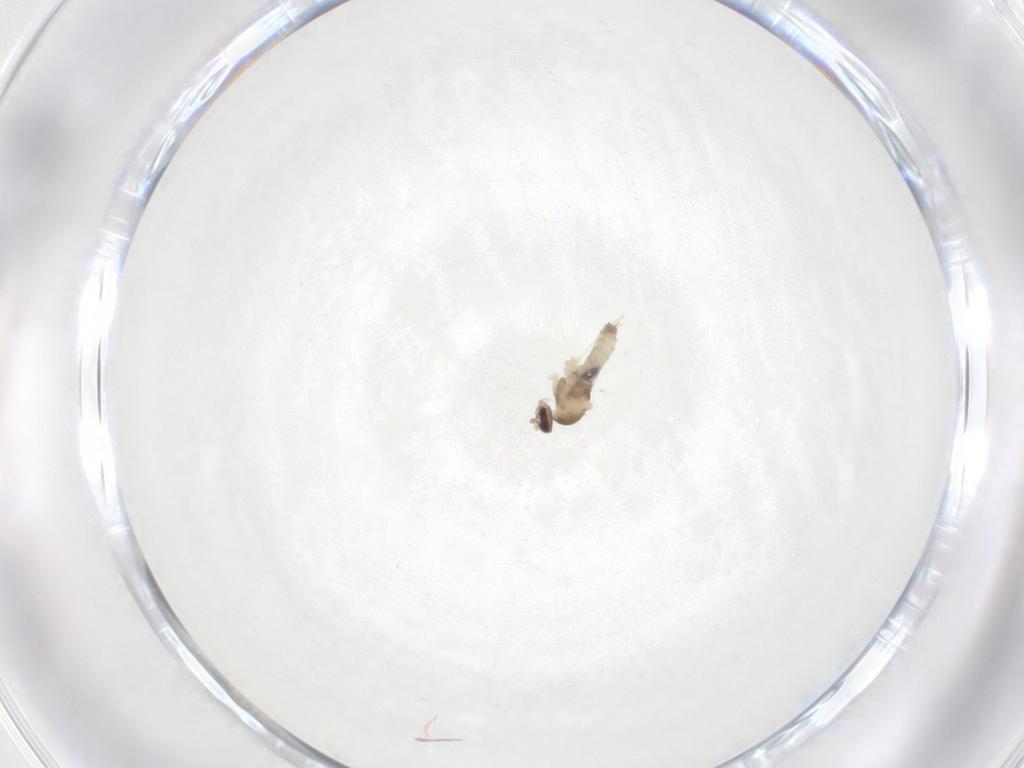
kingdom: Animalia
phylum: Arthropoda
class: Insecta
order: Diptera
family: Cecidomyiidae
